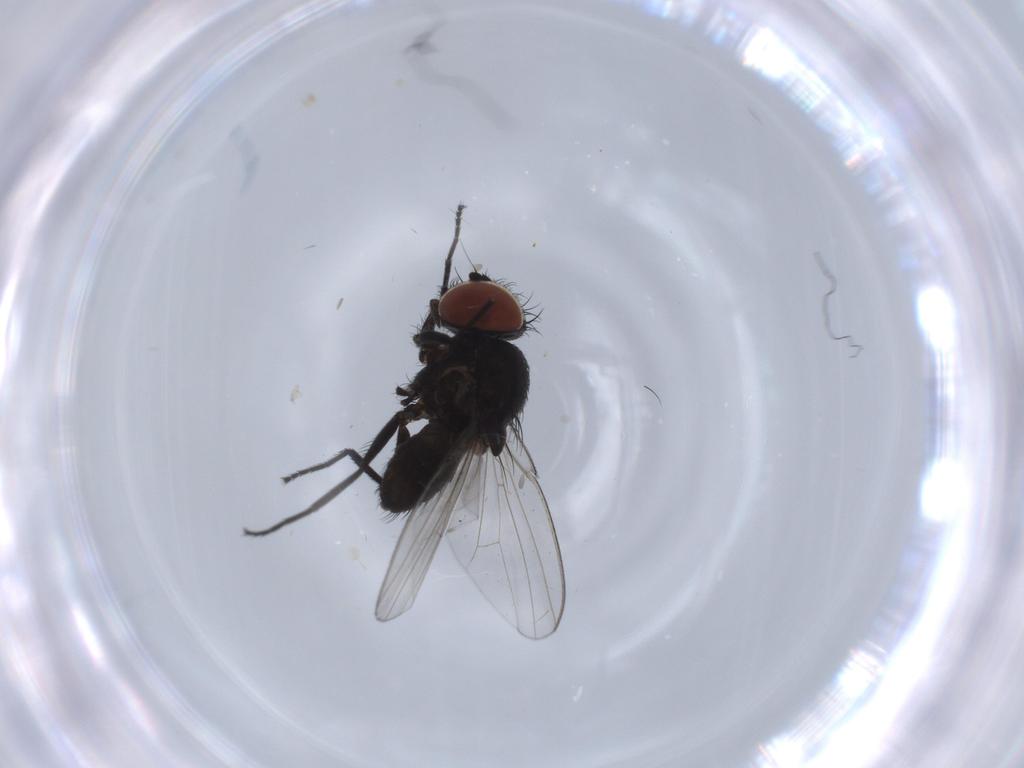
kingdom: Animalia
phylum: Arthropoda
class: Insecta
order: Diptera
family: Milichiidae
